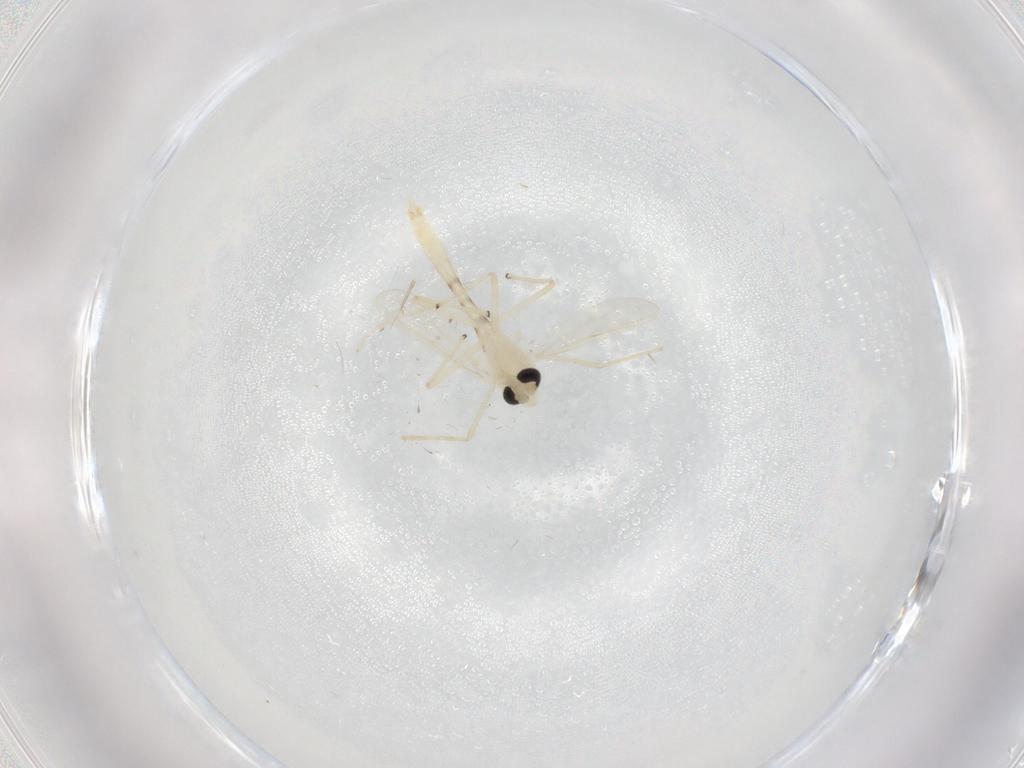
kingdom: Animalia
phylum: Arthropoda
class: Insecta
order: Diptera
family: Chironomidae
